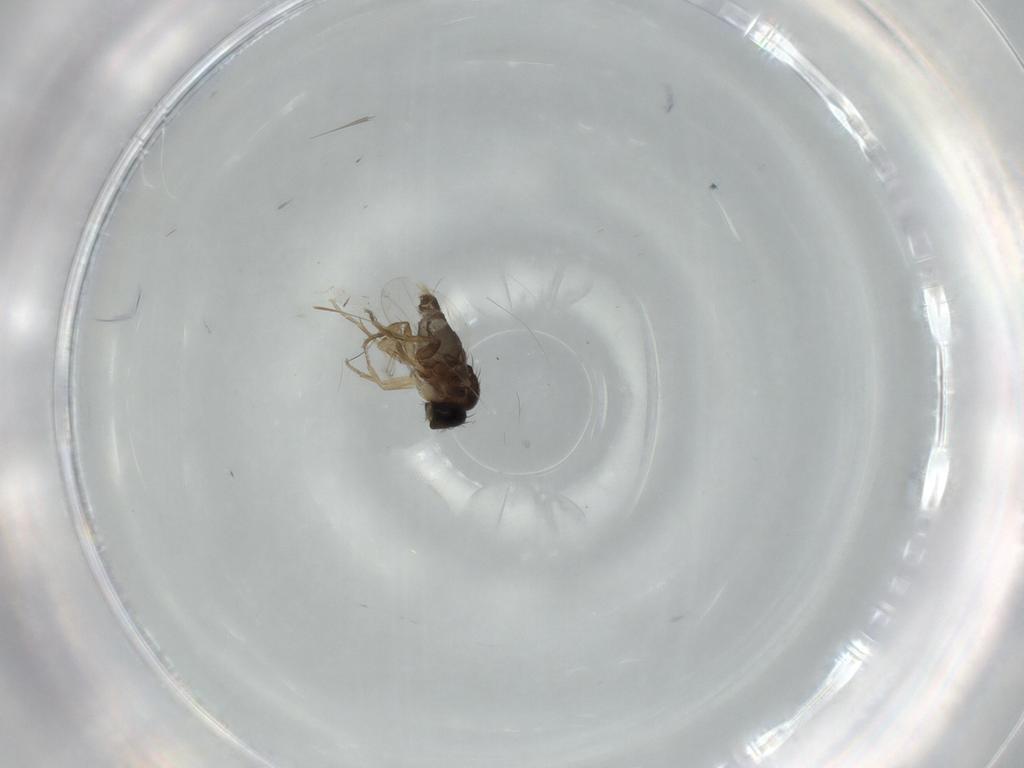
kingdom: Animalia
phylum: Arthropoda
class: Insecta
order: Diptera
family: Phoridae
